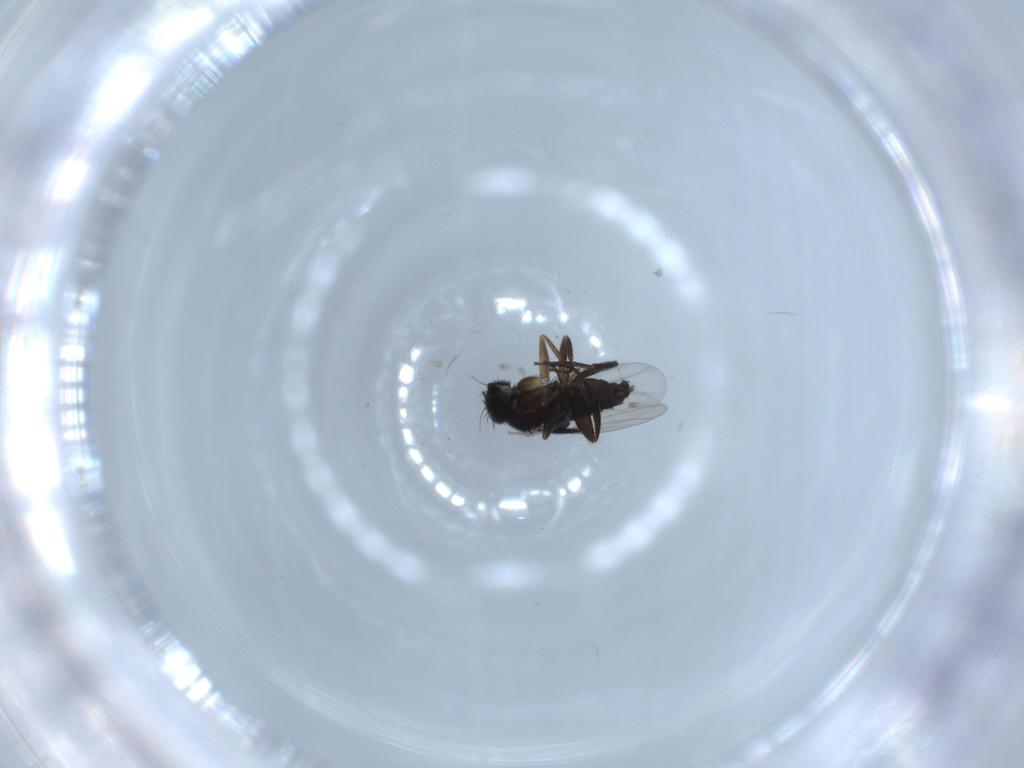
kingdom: Animalia
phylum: Arthropoda
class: Insecta
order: Diptera
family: Phoridae
